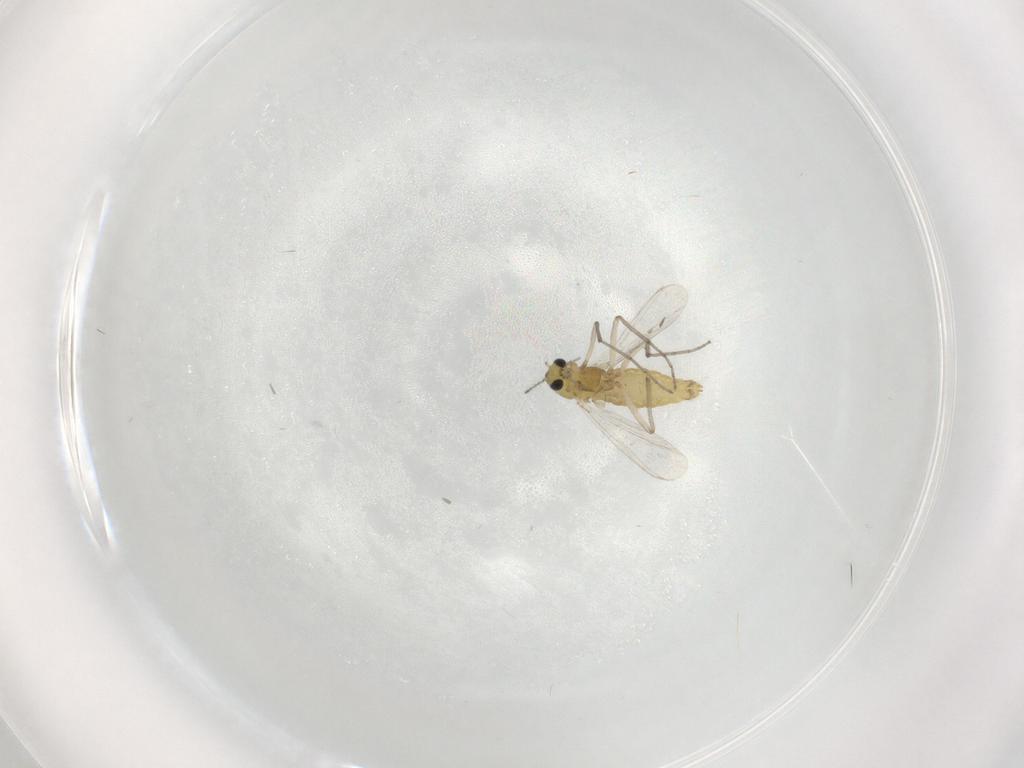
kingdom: Animalia
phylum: Arthropoda
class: Insecta
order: Diptera
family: Chironomidae
